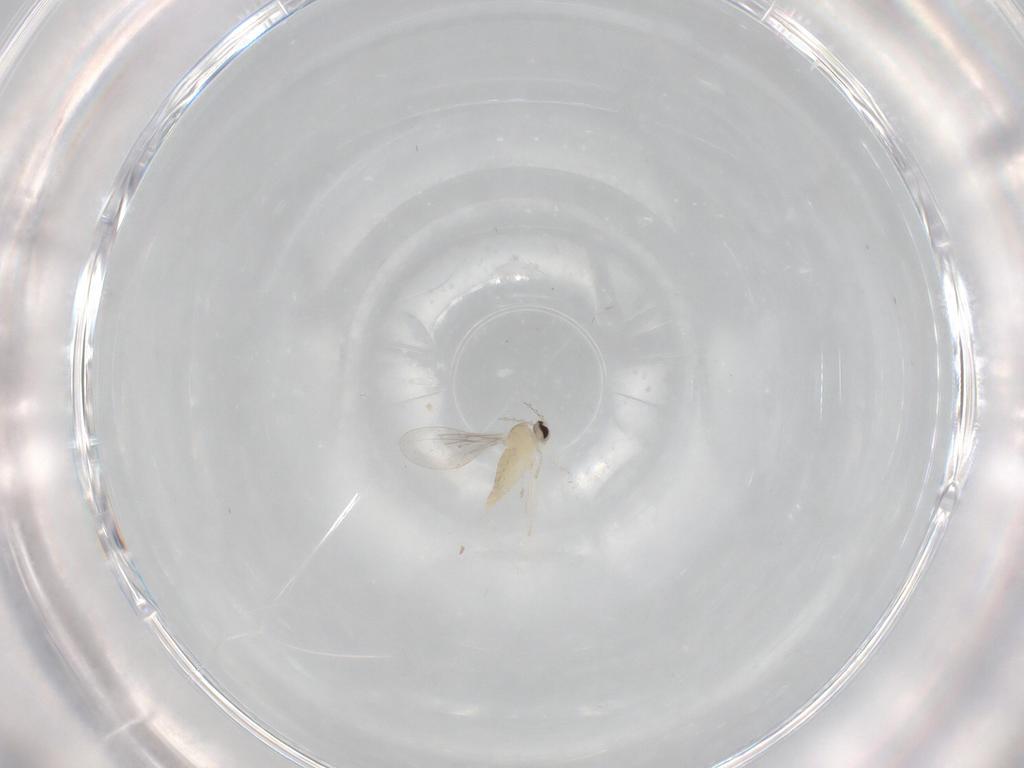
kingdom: Animalia
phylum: Arthropoda
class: Insecta
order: Diptera
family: Cecidomyiidae
